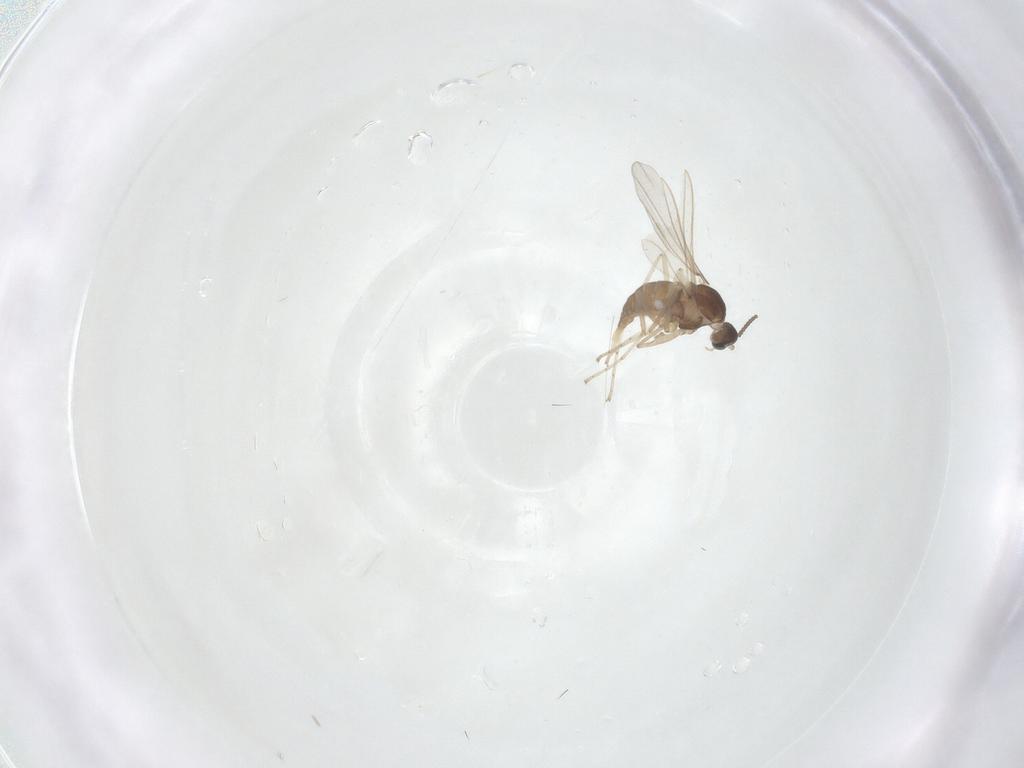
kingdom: Animalia
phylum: Arthropoda
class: Insecta
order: Diptera
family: Cecidomyiidae
